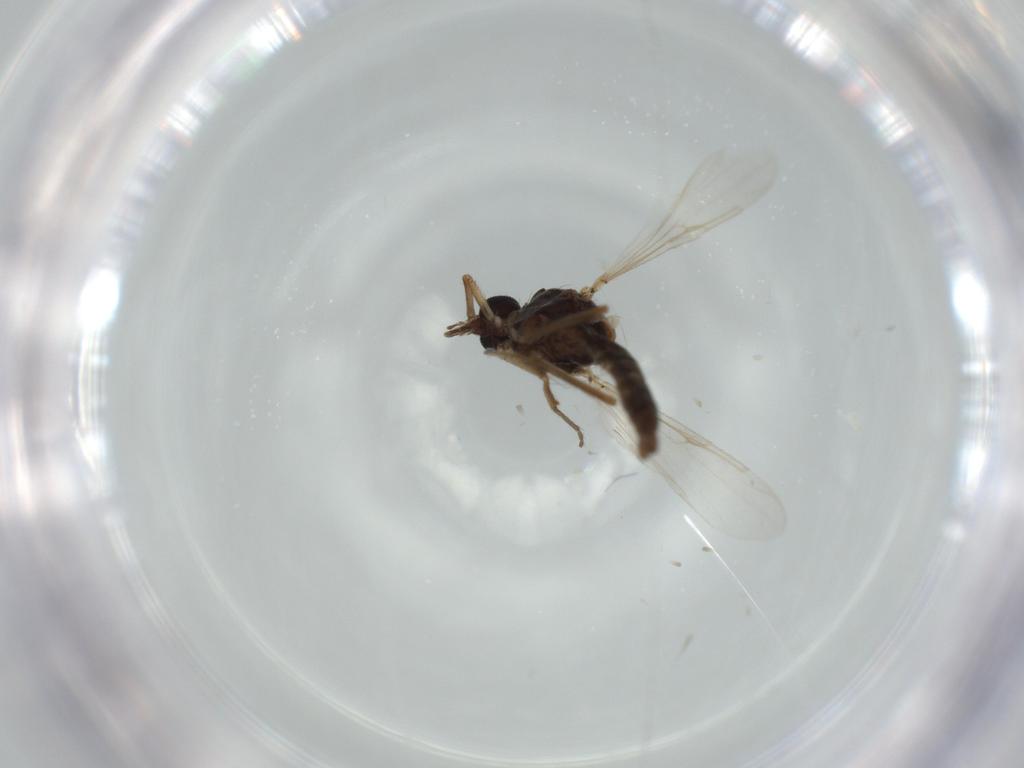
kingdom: Animalia
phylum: Arthropoda
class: Insecta
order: Diptera
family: Ceratopogonidae
